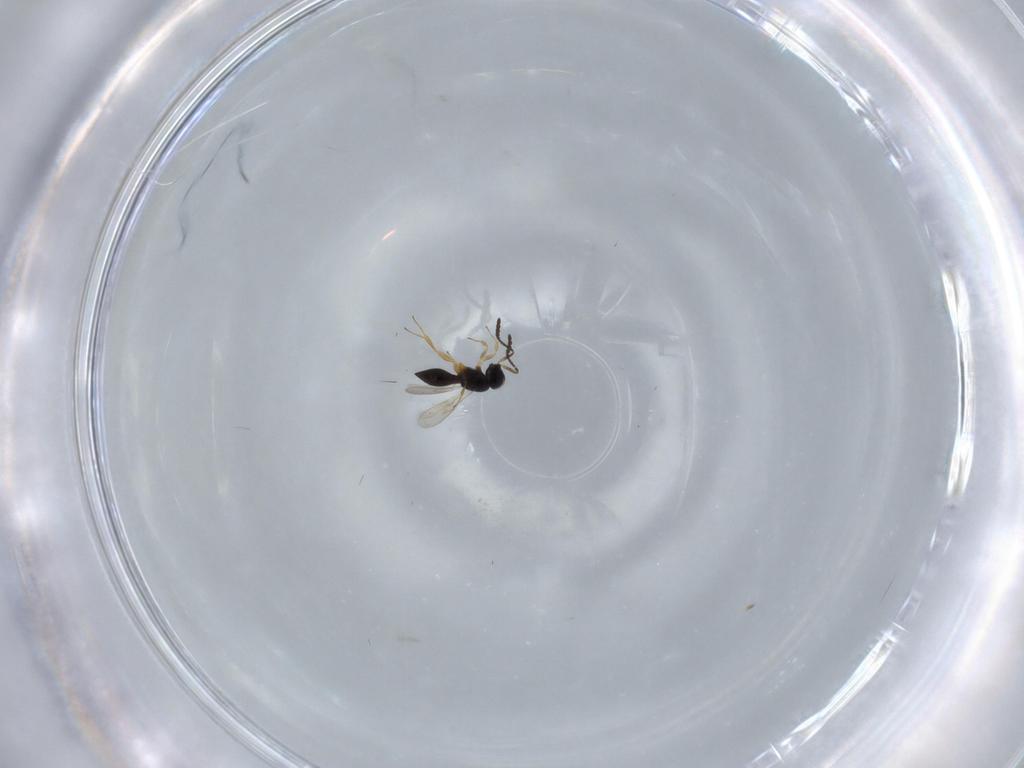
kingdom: Animalia
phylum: Arthropoda
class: Insecta
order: Hymenoptera
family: Scelionidae
